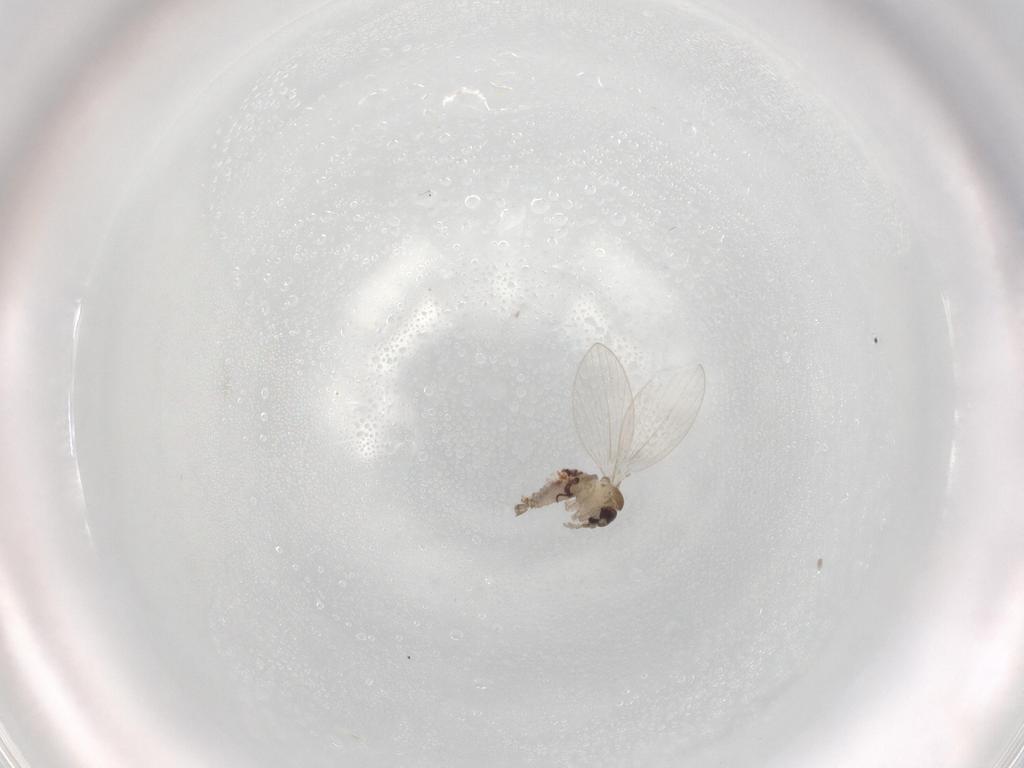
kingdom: Animalia
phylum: Arthropoda
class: Insecta
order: Diptera
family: Psychodidae
